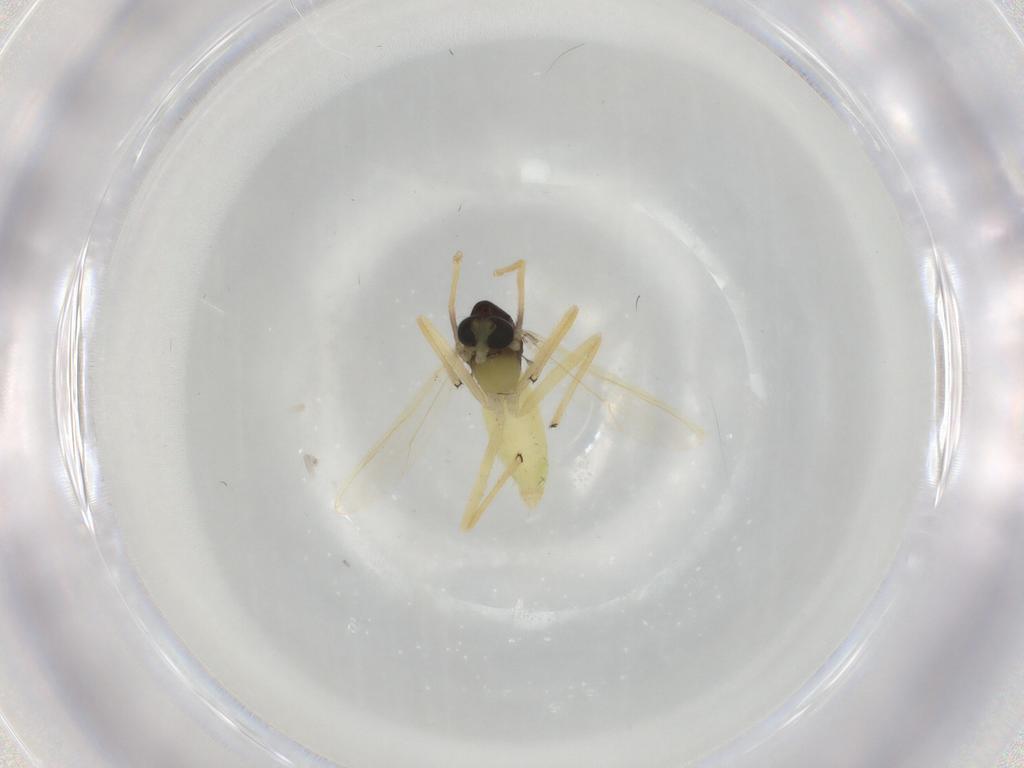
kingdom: Animalia
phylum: Arthropoda
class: Insecta
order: Diptera
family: Chironomidae
